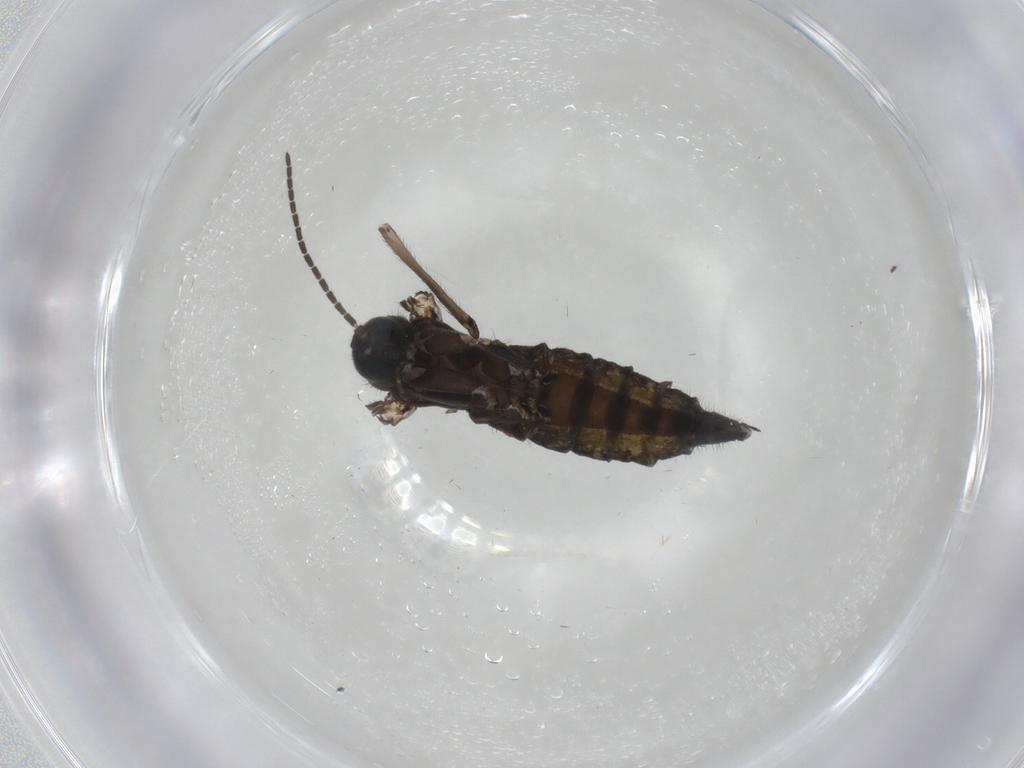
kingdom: Animalia
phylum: Arthropoda
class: Insecta
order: Diptera
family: Sciaridae
